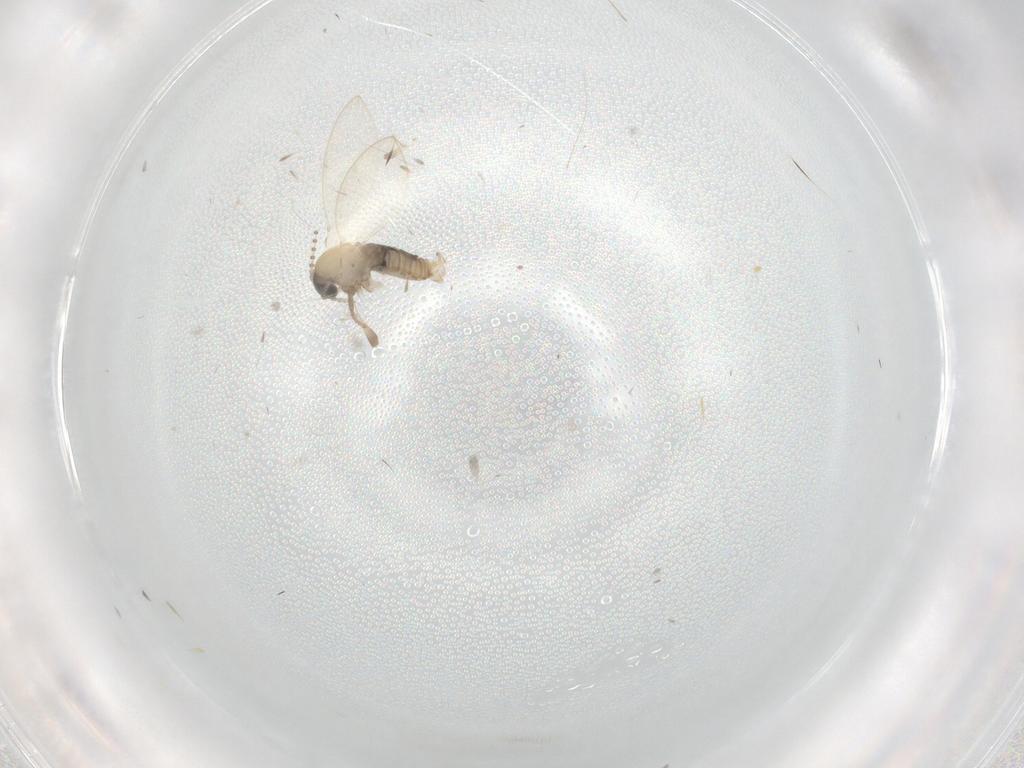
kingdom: Animalia
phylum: Arthropoda
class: Insecta
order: Diptera
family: Psychodidae
